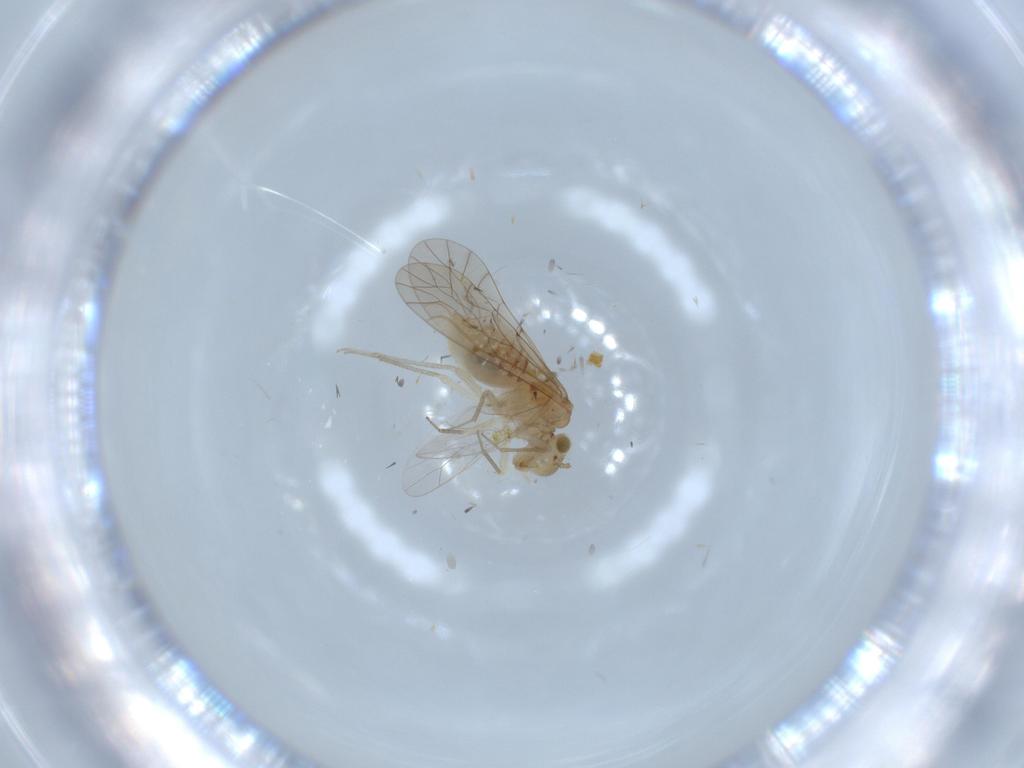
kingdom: Animalia
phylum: Arthropoda
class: Insecta
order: Psocodea
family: Lachesillidae
